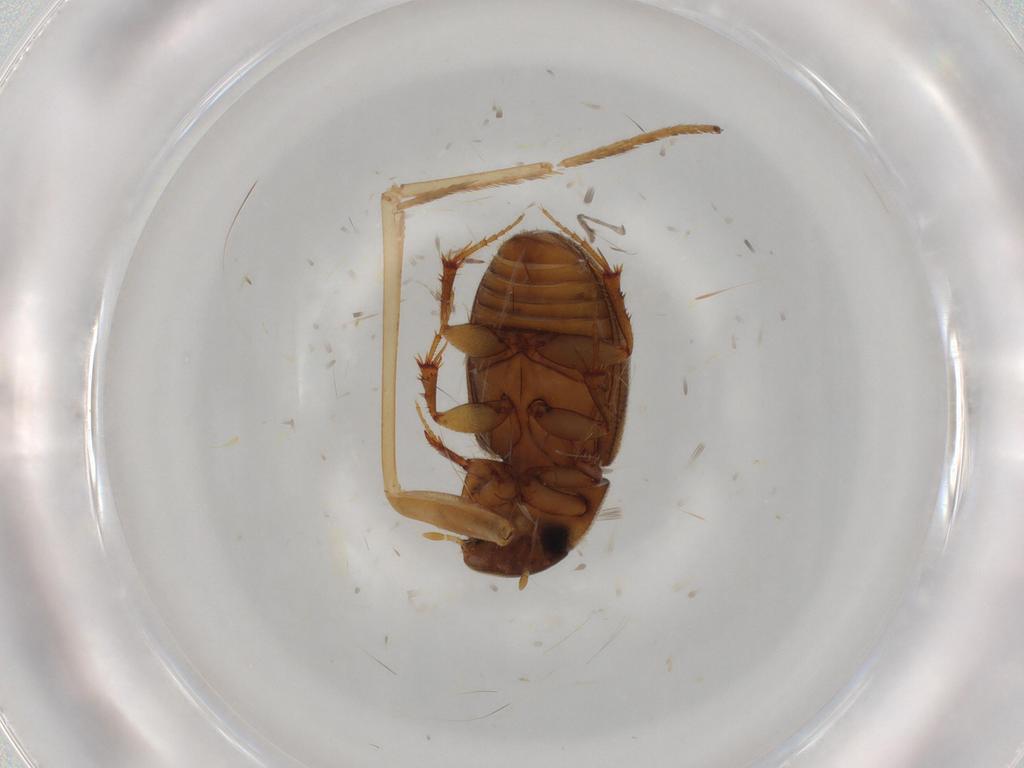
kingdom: Animalia
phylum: Arthropoda
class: Insecta
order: Coleoptera
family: Scarabaeidae
